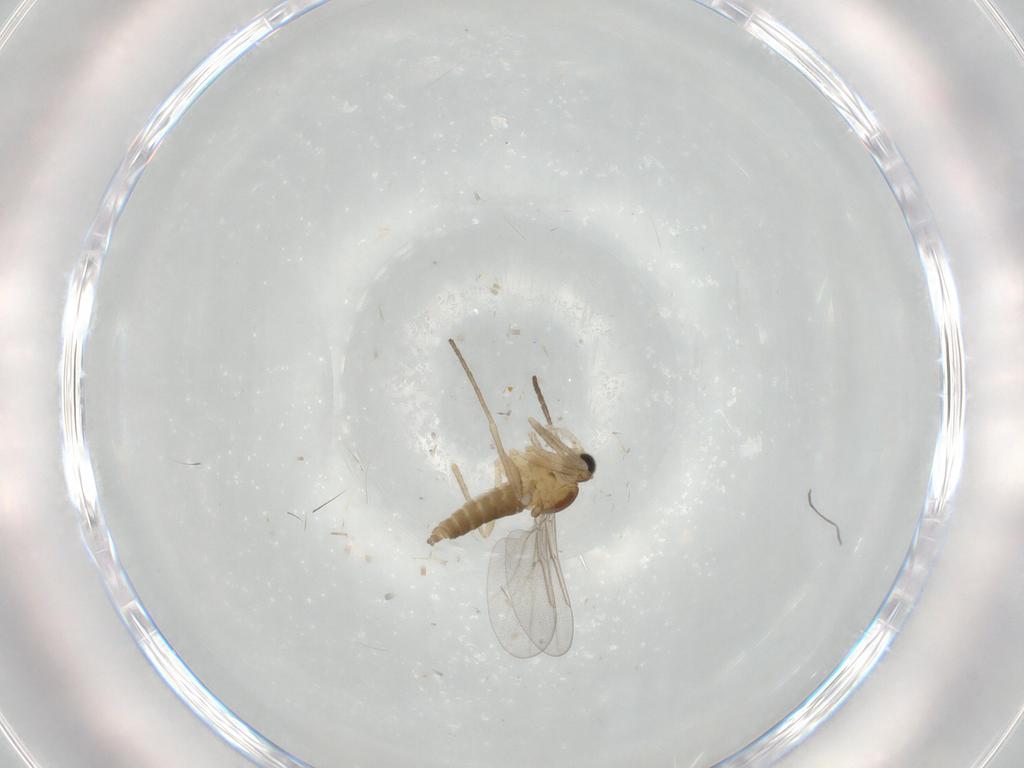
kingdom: Animalia
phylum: Arthropoda
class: Insecta
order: Diptera
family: Cecidomyiidae
